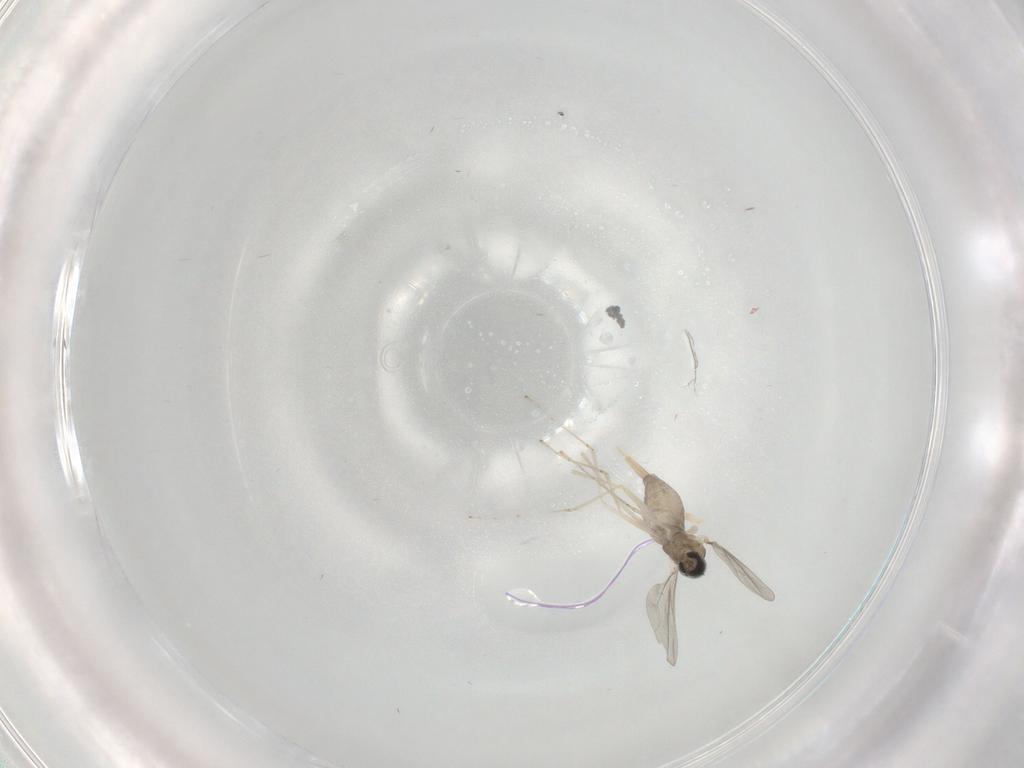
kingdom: Animalia
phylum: Arthropoda
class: Insecta
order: Diptera
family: Cecidomyiidae
